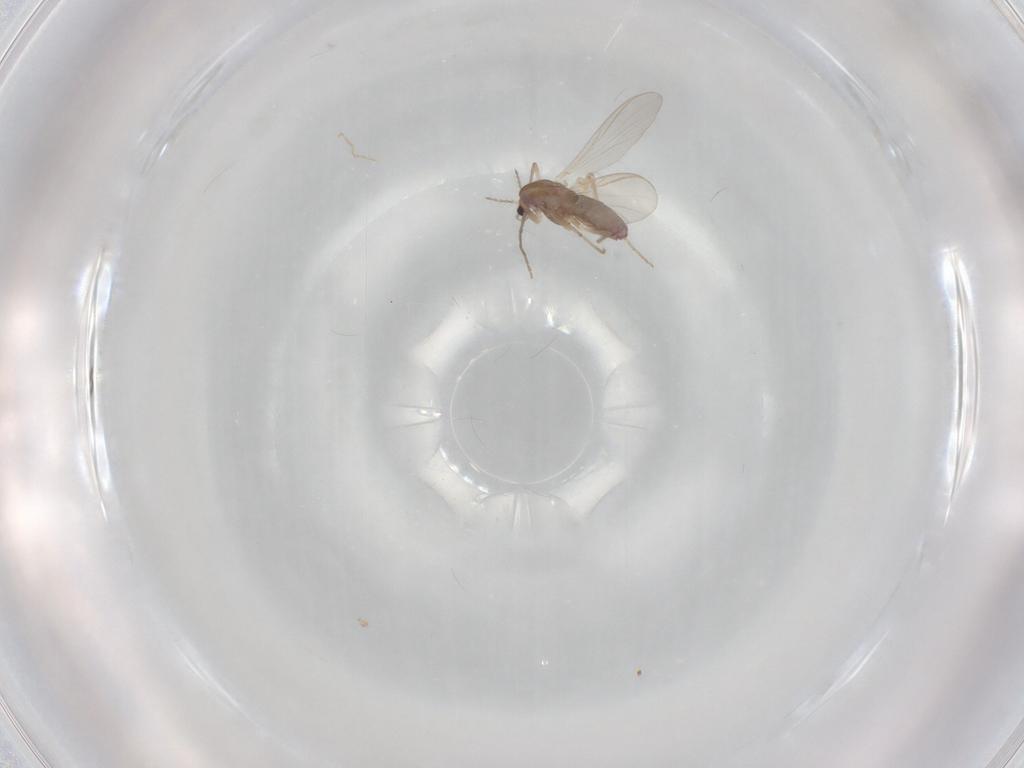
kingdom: Animalia
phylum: Arthropoda
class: Insecta
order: Diptera
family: Chironomidae
